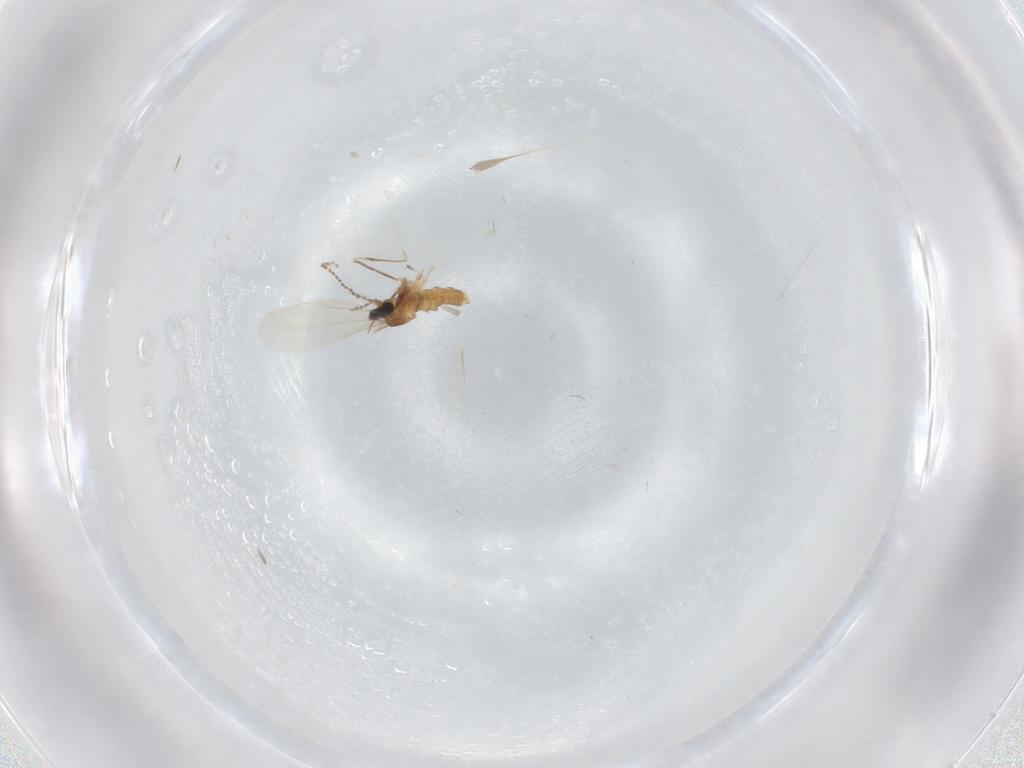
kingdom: Animalia
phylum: Arthropoda
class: Insecta
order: Diptera
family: Cecidomyiidae
